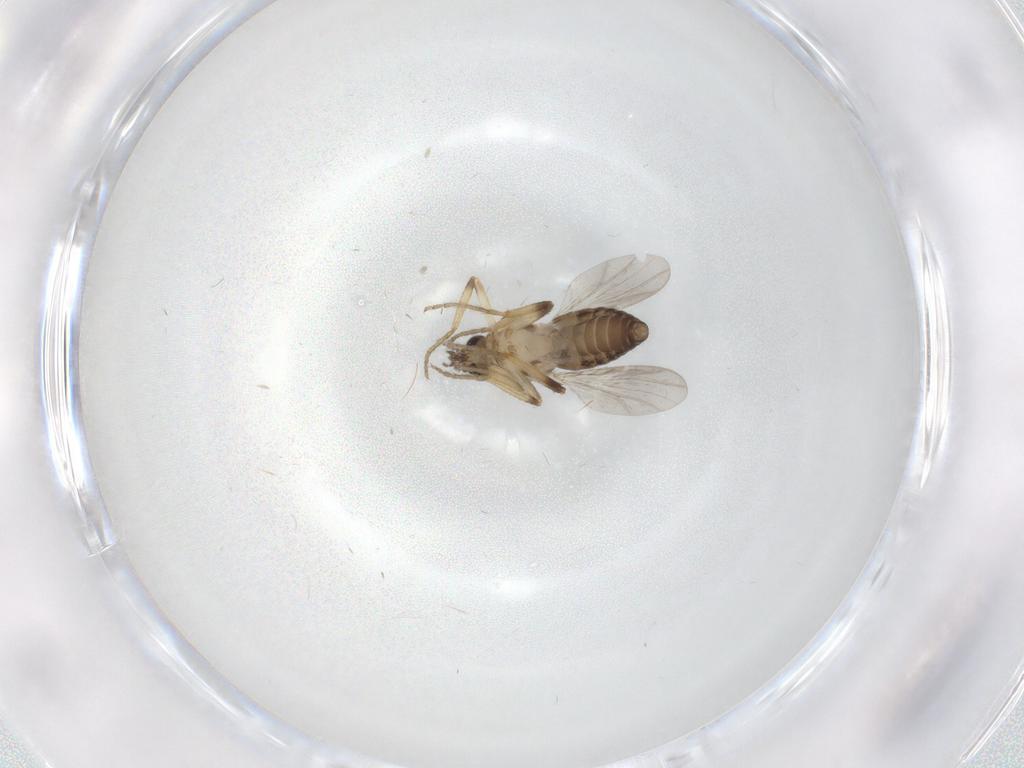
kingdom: Animalia
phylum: Arthropoda
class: Insecta
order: Diptera
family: Ceratopogonidae
